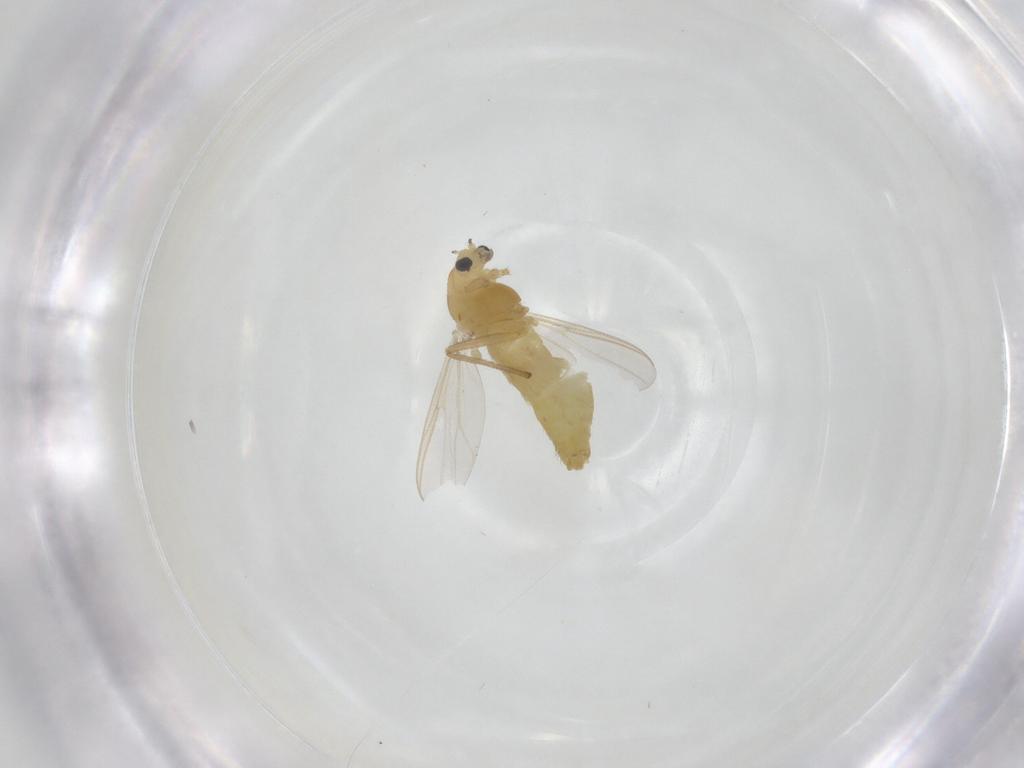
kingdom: Animalia
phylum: Arthropoda
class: Insecta
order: Diptera
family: Chironomidae
